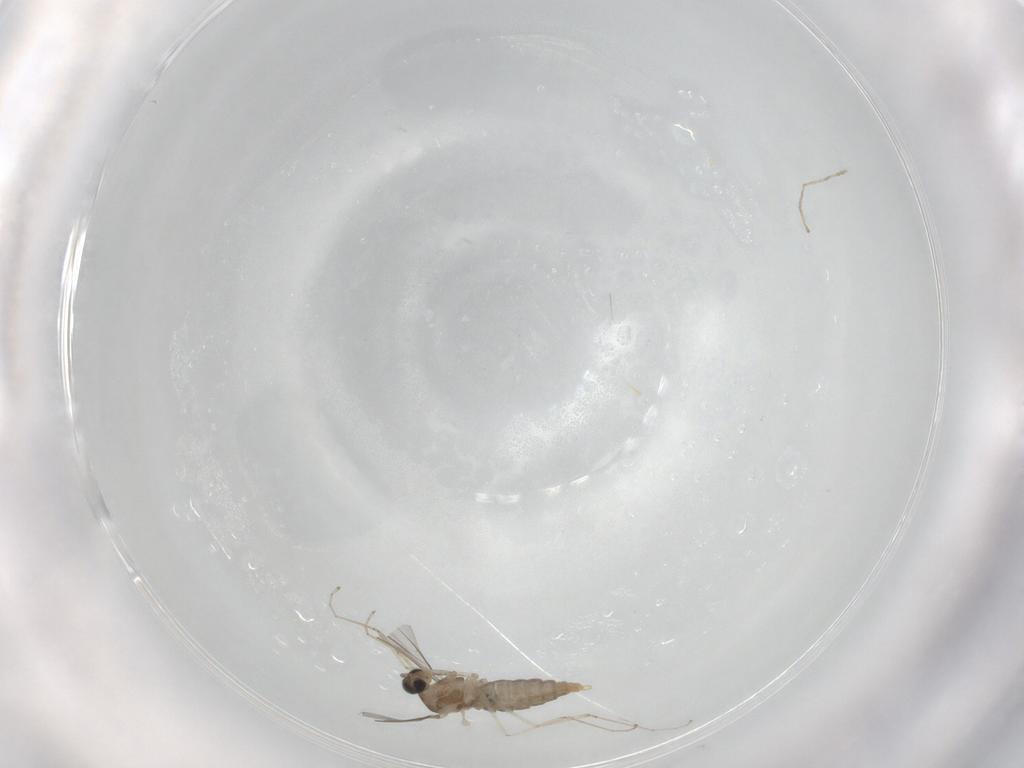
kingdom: Animalia
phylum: Arthropoda
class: Insecta
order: Diptera
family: Cecidomyiidae
